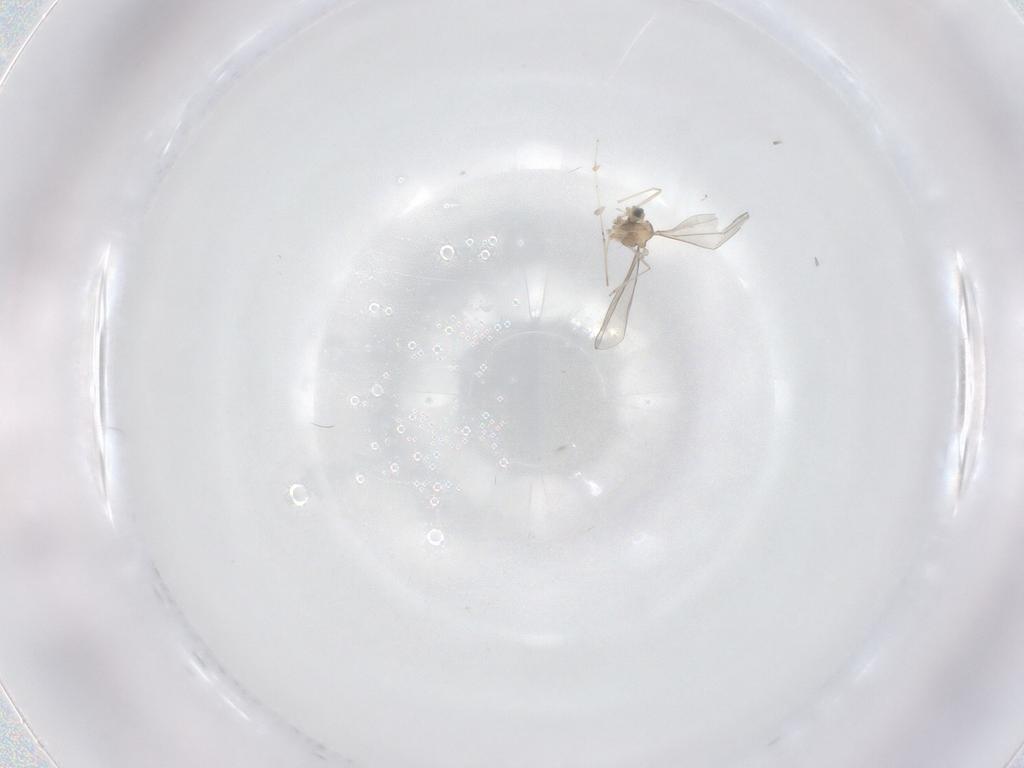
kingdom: Animalia
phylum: Arthropoda
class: Insecta
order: Diptera
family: Cecidomyiidae
